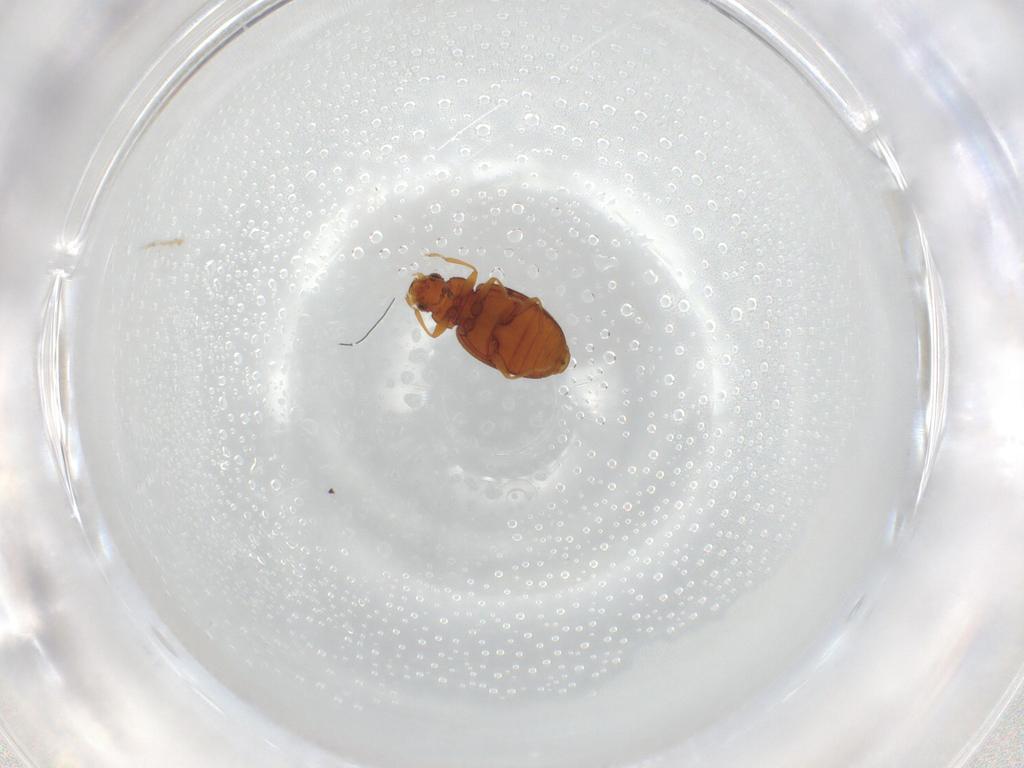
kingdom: Animalia
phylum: Arthropoda
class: Insecta
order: Coleoptera
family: Latridiidae
